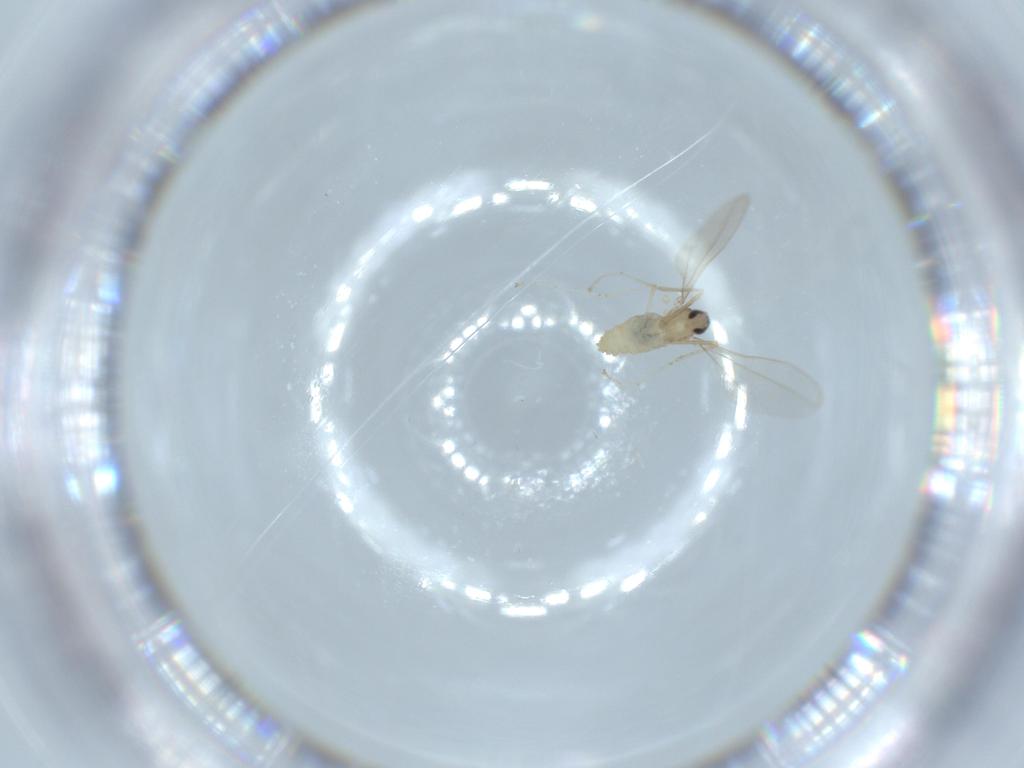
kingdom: Animalia
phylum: Arthropoda
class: Insecta
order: Diptera
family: Cecidomyiidae
